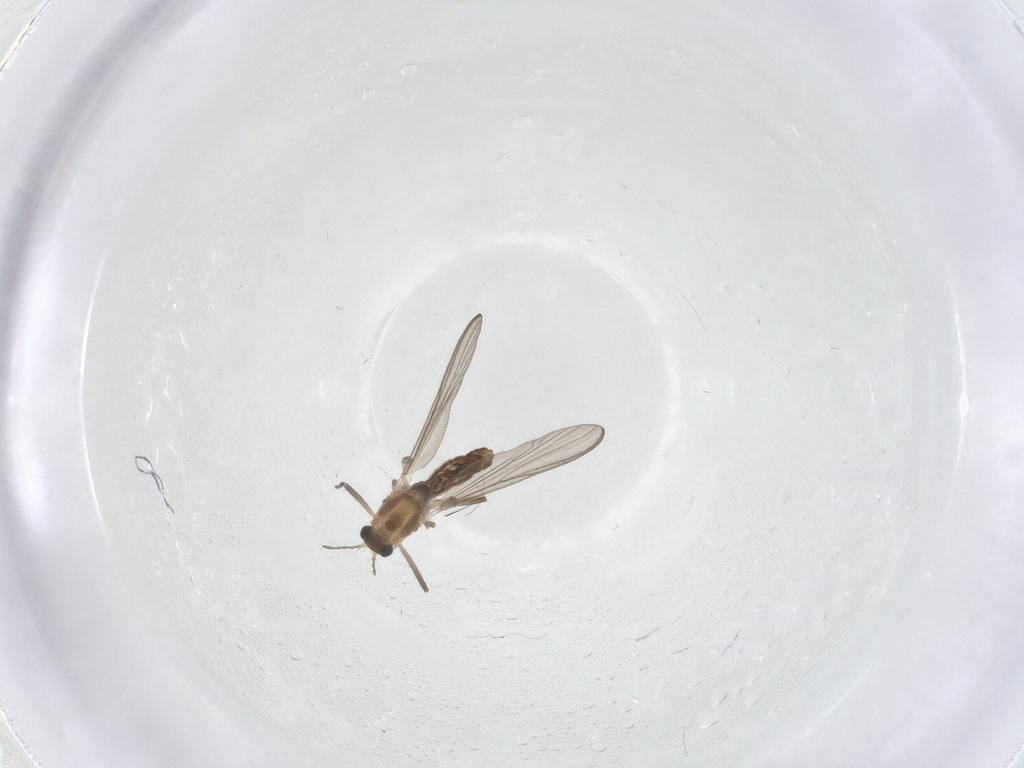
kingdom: Animalia
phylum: Arthropoda
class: Insecta
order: Diptera
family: Chironomidae
